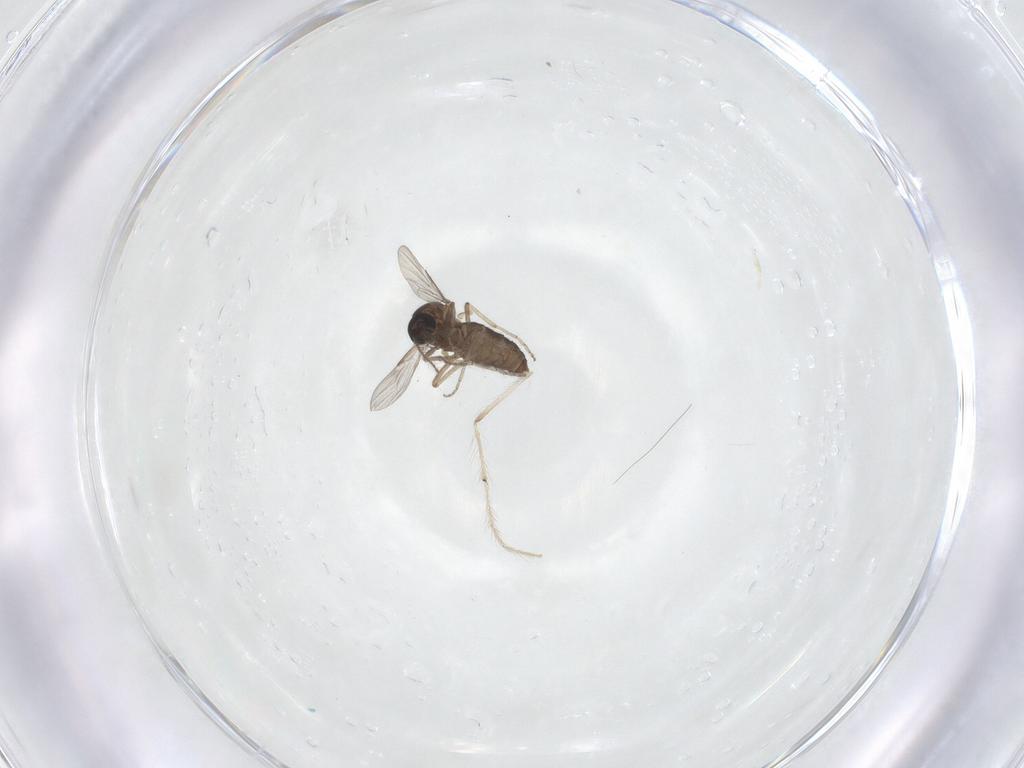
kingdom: Animalia
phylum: Arthropoda
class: Insecta
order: Diptera
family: Ceratopogonidae
